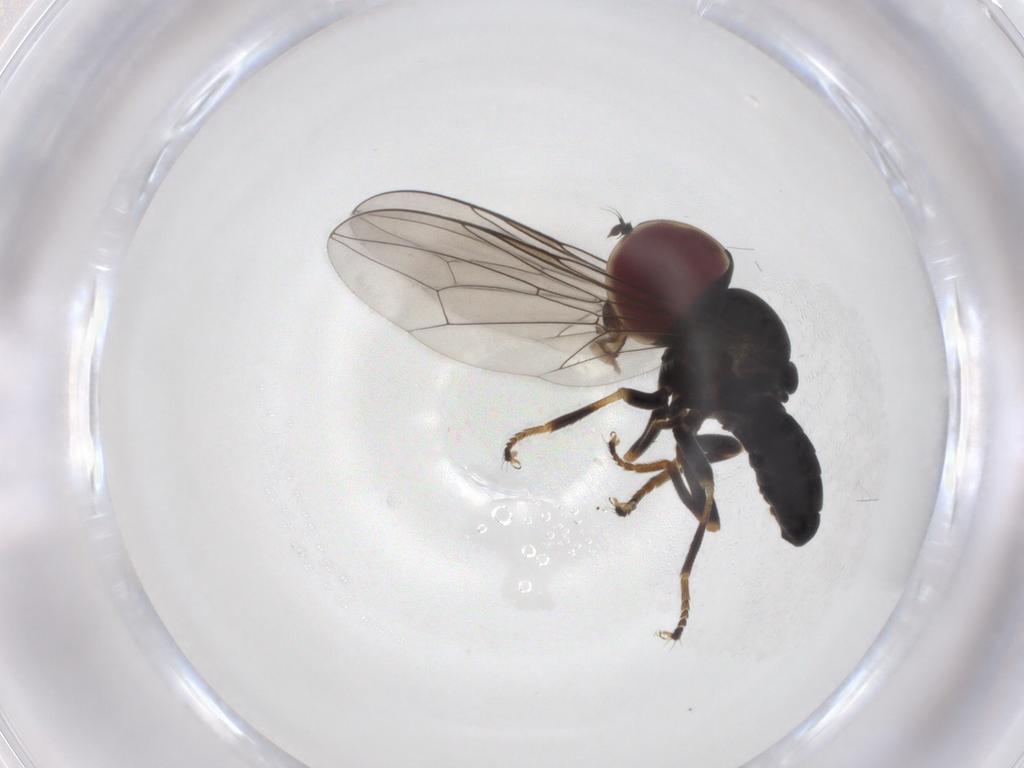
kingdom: Animalia
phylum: Arthropoda
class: Insecta
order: Diptera
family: Pipunculidae
